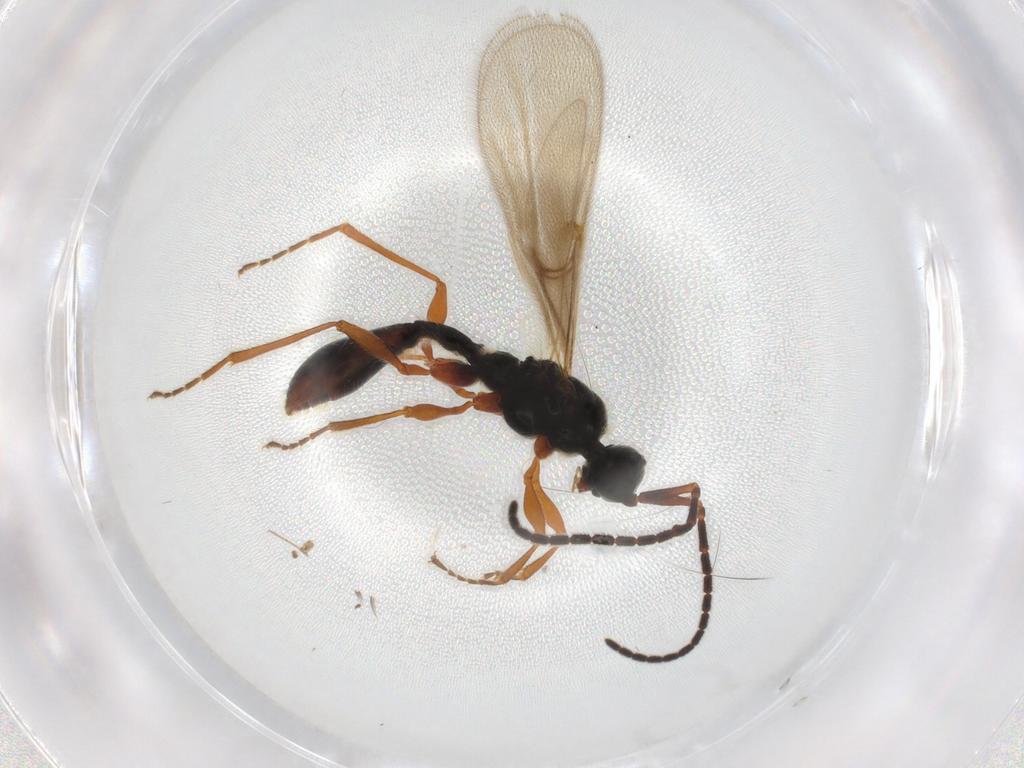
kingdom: Animalia
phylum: Arthropoda
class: Insecta
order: Hymenoptera
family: Diapriidae
